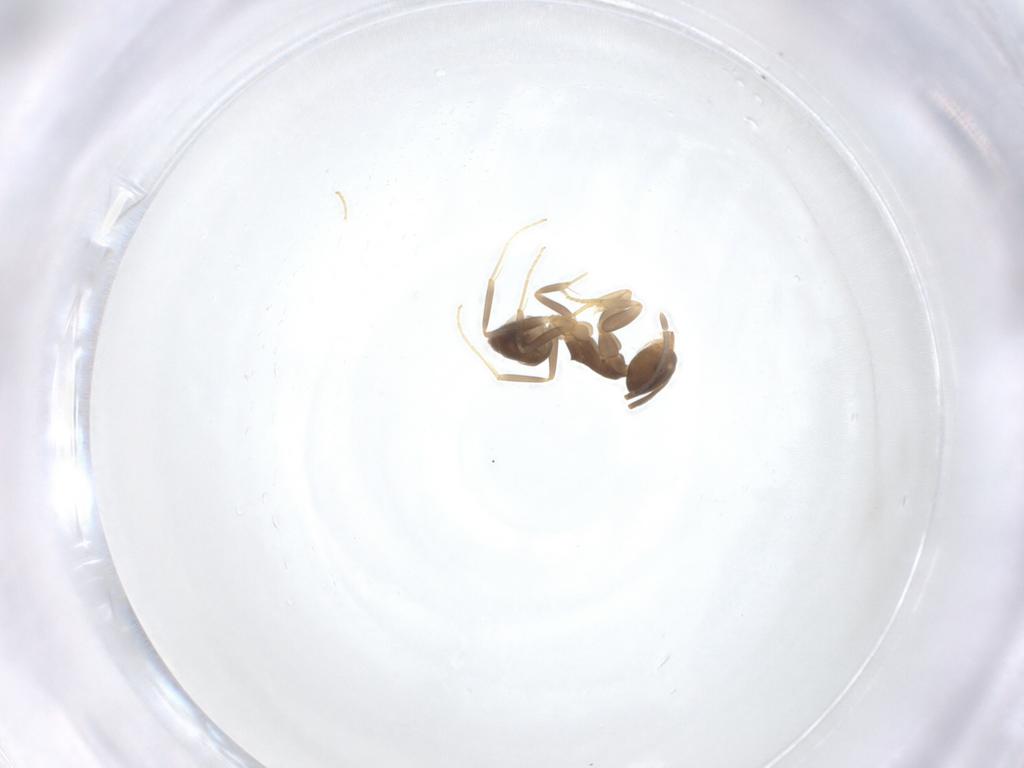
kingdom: Animalia
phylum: Arthropoda
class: Insecta
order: Hymenoptera
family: Formicidae
